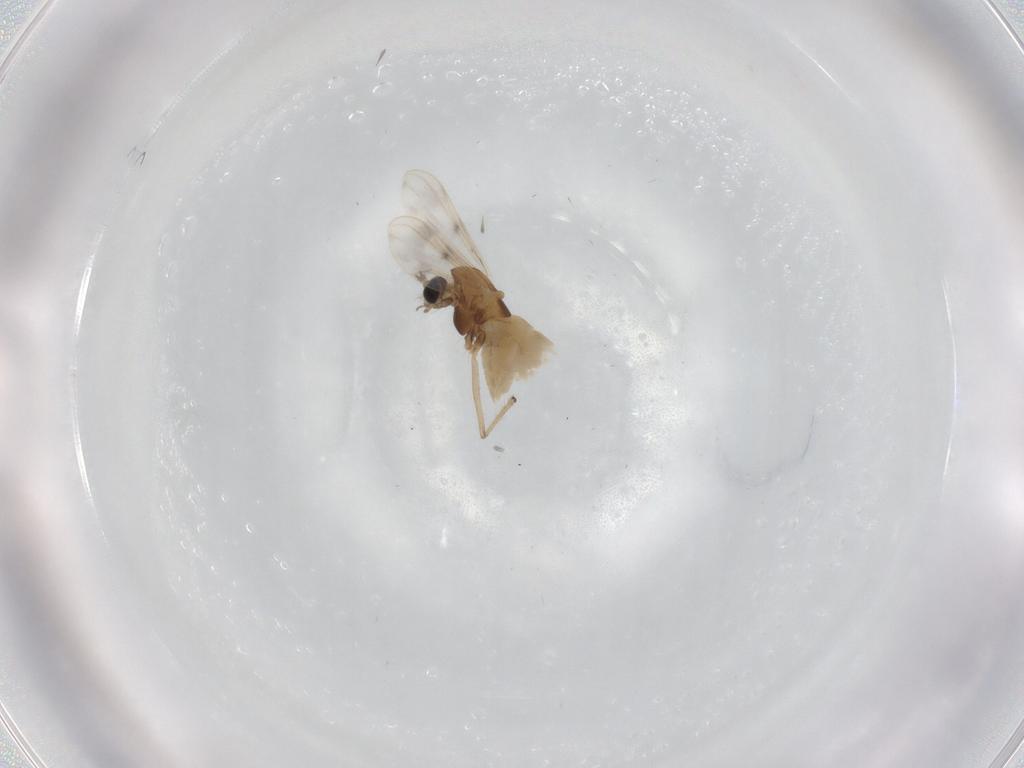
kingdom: Animalia
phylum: Arthropoda
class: Insecta
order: Diptera
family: Chironomidae
